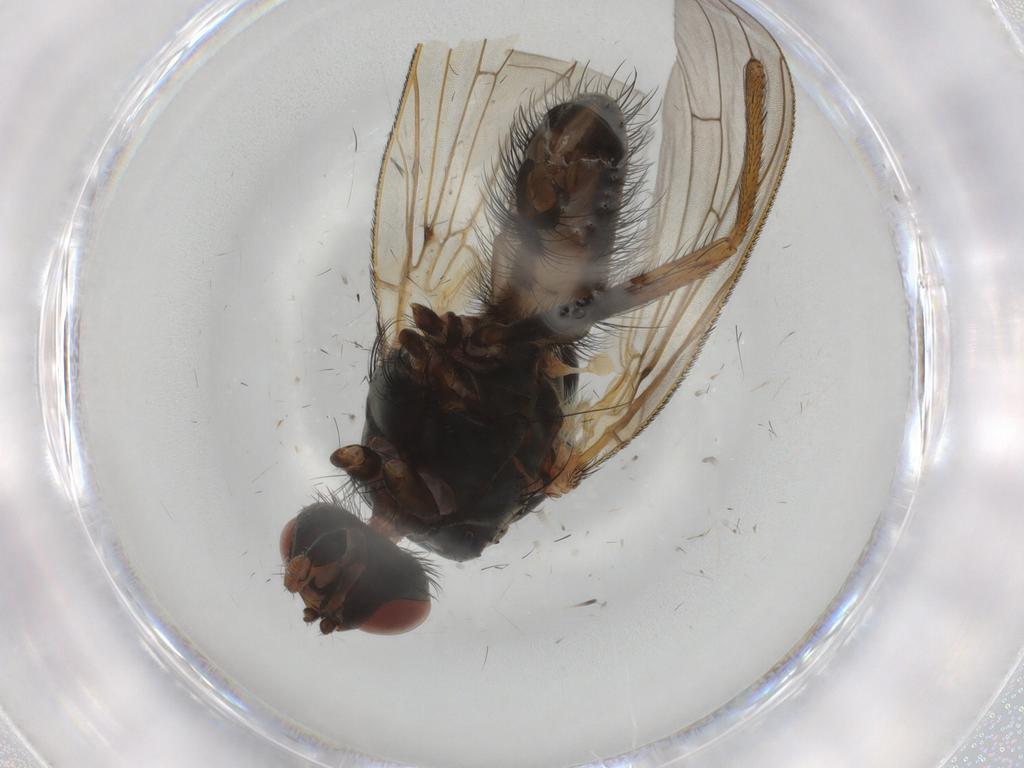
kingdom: Animalia
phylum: Arthropoda
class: Insecta
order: Diptera
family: Anthomyiidae
